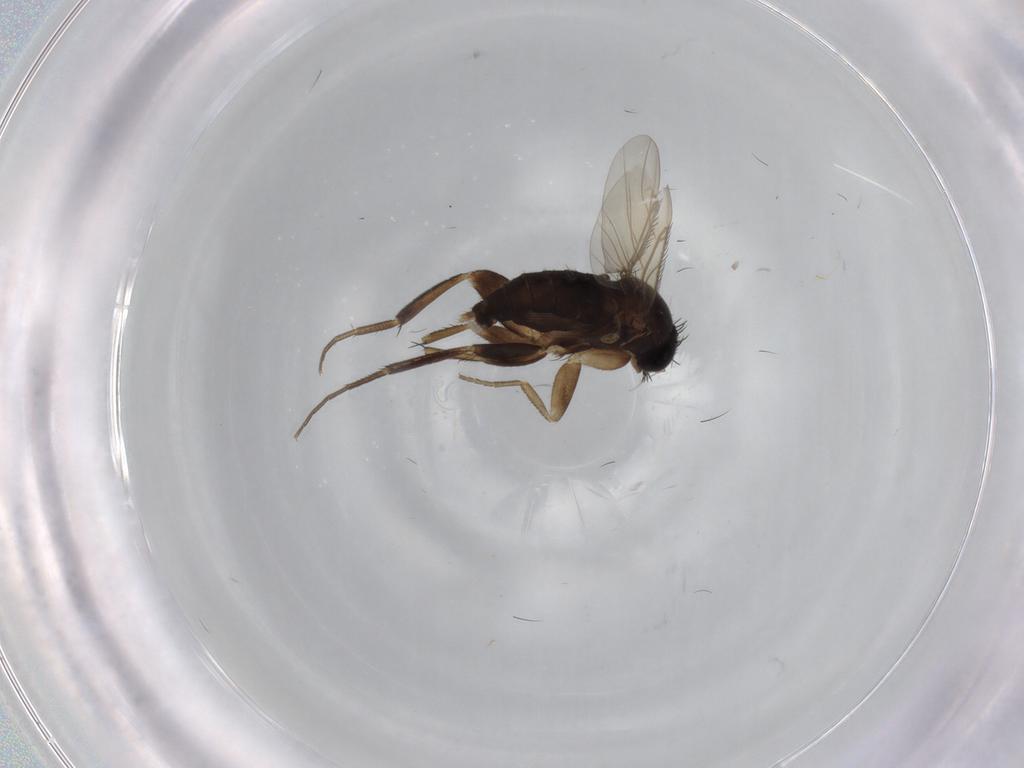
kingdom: Animalia
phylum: Arthropoda
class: Insecta
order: Diptera
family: Phoridae
